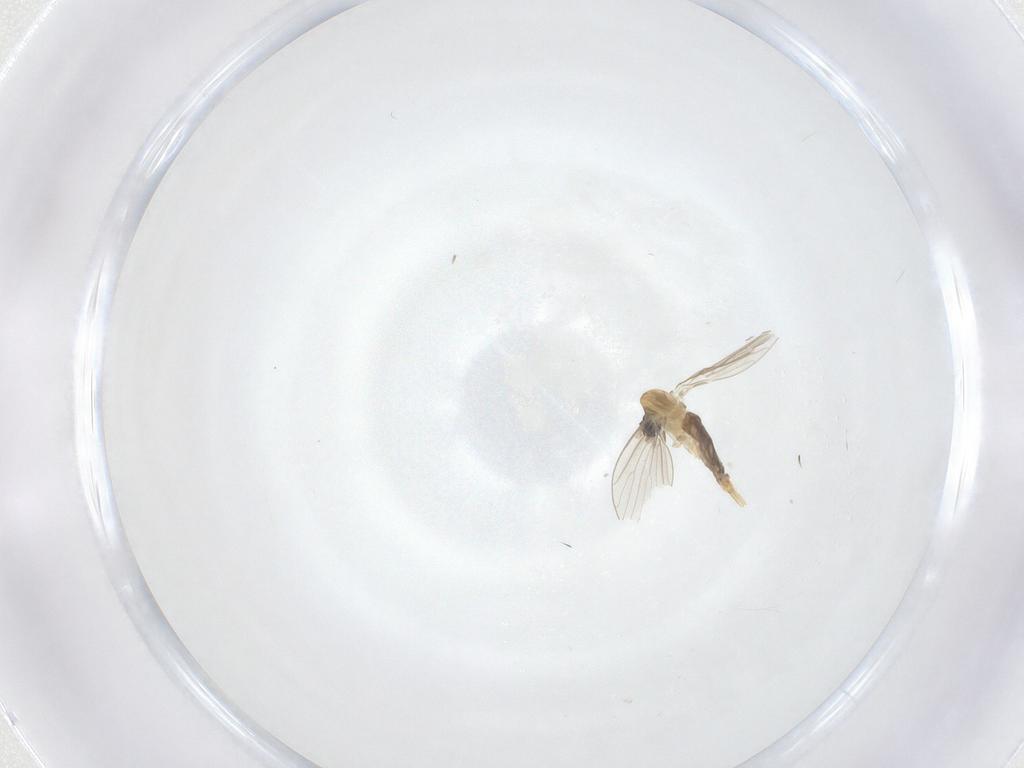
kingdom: Animalia
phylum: Arthropoda
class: Insecta
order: Diptera
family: Psychodidae
